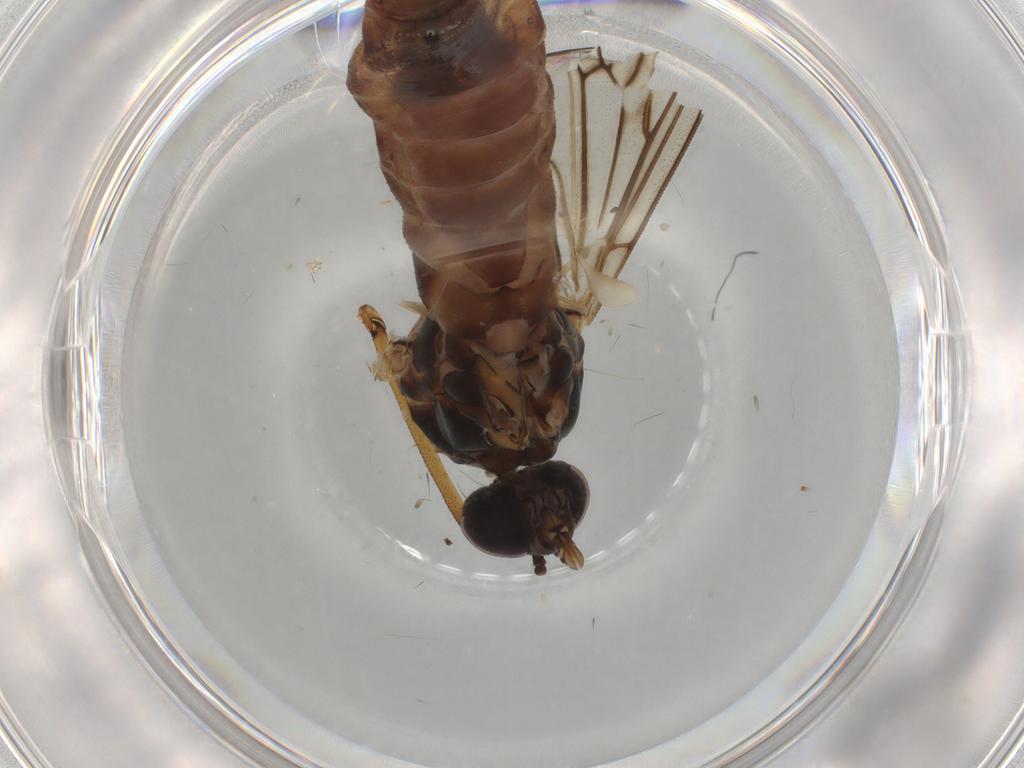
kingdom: Animalia
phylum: Arthropoda
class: Insecta
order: Diptera
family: Anisopodidae
